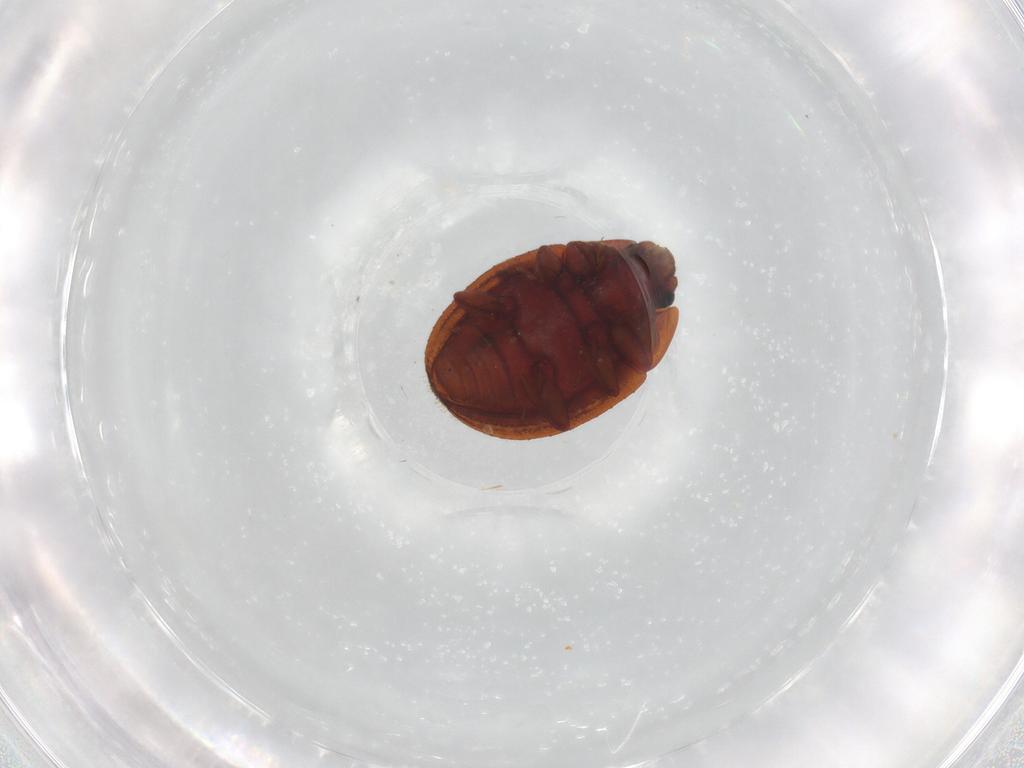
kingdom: Animalia
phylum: Arthropoda
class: Insecta
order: Coleoptera
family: Euxestidae
